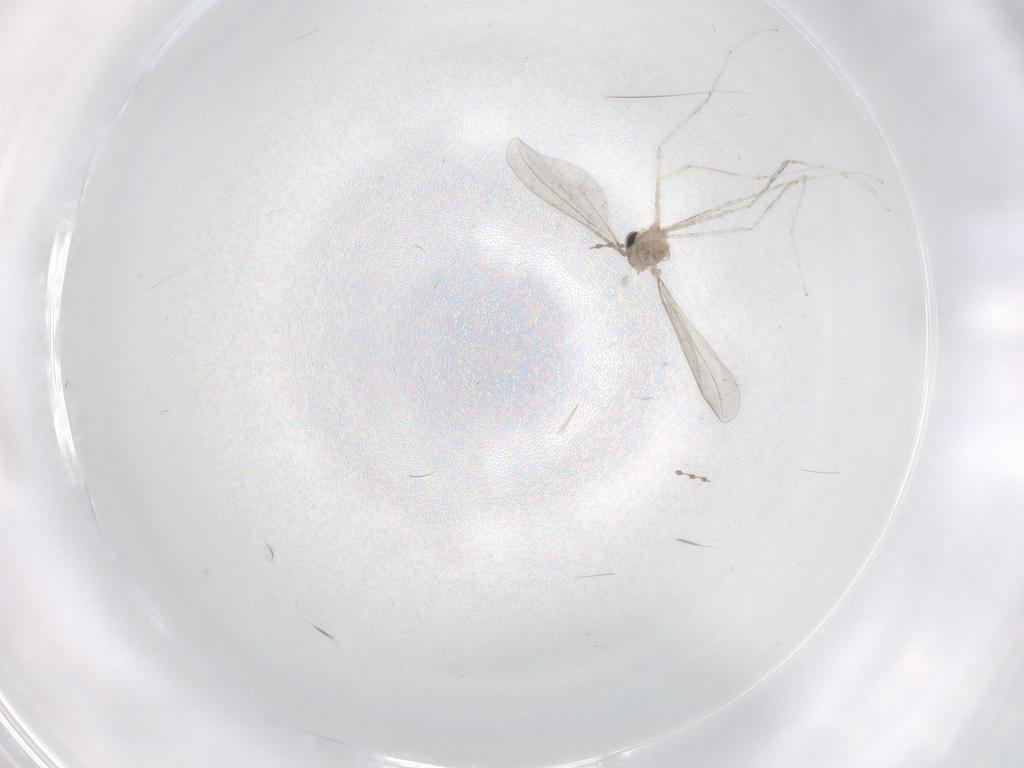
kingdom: Animalia
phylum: Arthropoda
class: Insecta
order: Diptera
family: Cecidomyiidae
